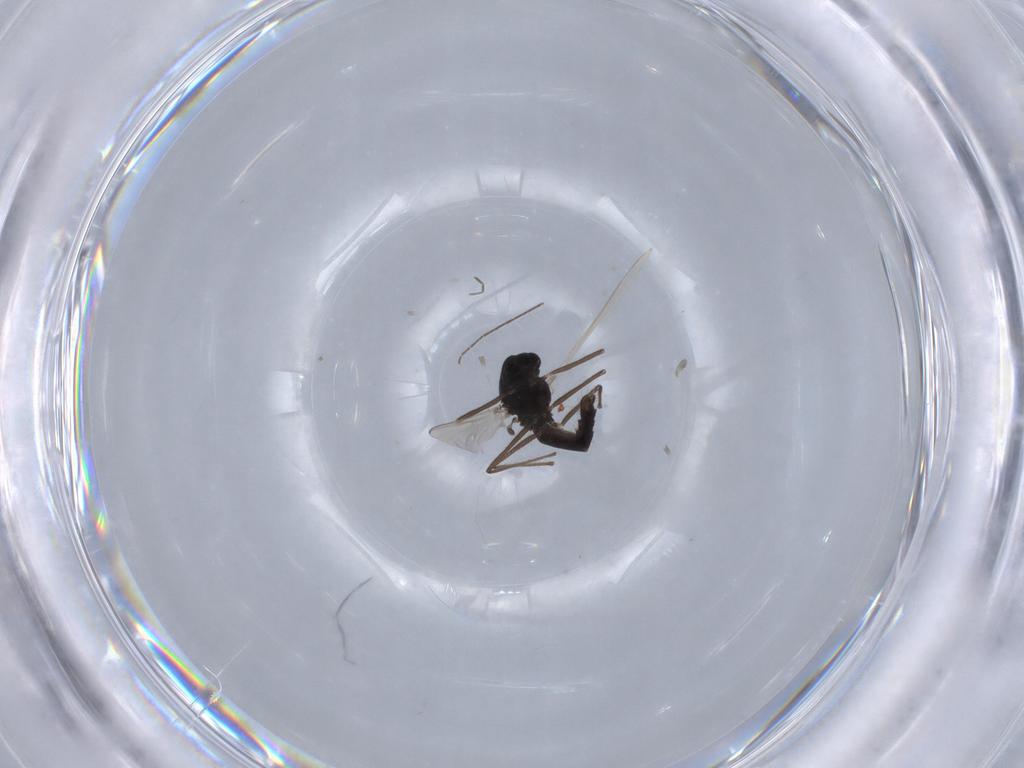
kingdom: Animalia
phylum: Arthropoda
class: Insecta
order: Diptera
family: Chironomidae
